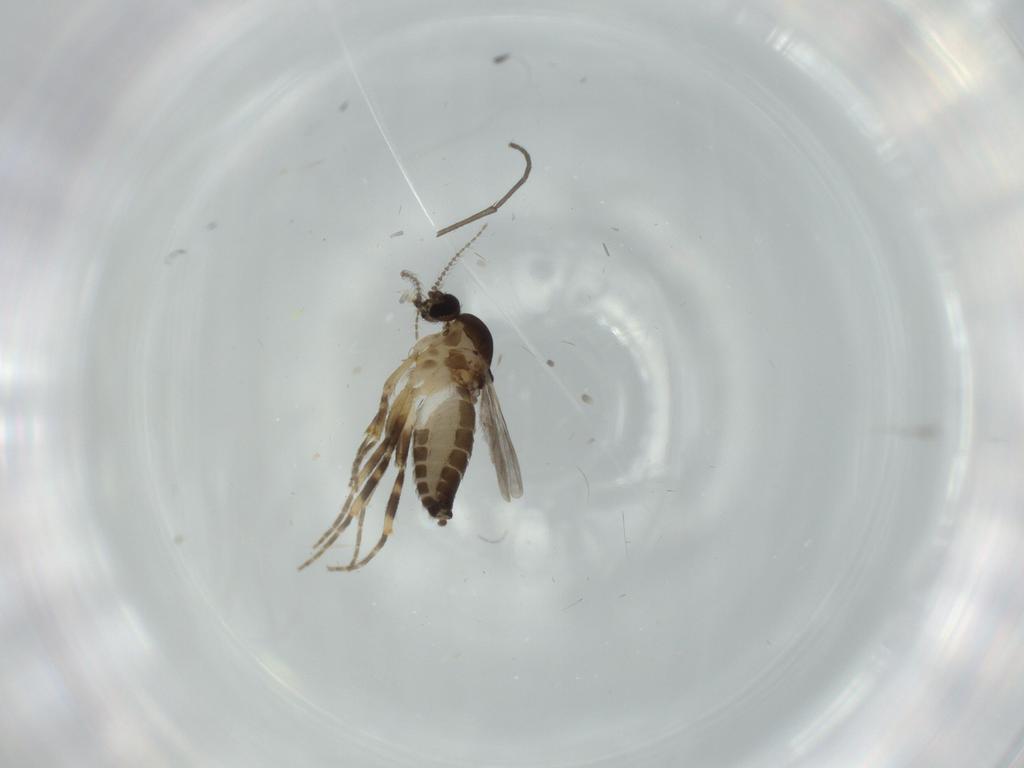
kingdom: Animalia
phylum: Arthropoda
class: Insecta
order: Diptera
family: Ceratopogonidae
